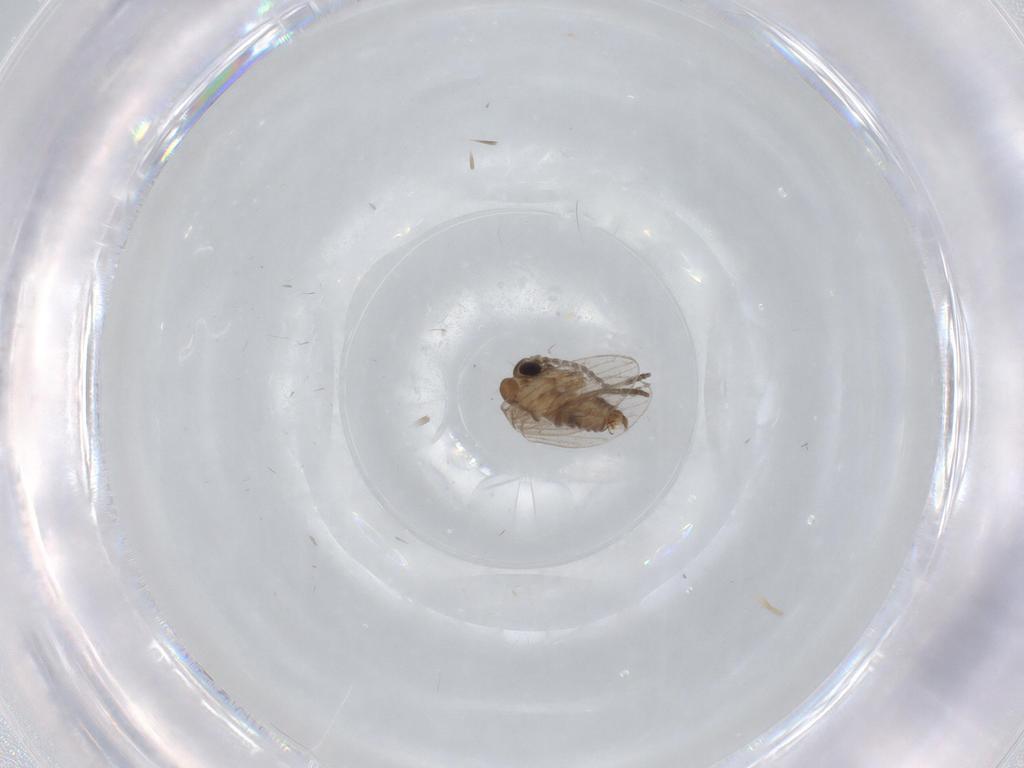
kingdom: Animalia
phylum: Arthropoda
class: Insecta
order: Diptera
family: Psychodidae
